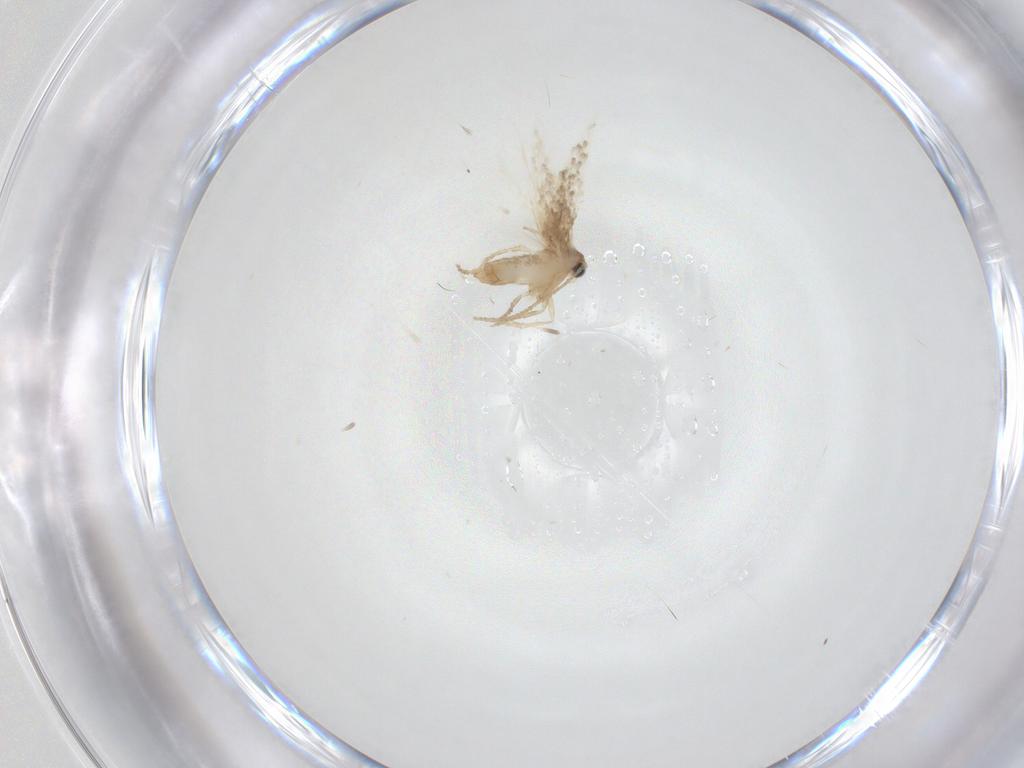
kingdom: Animalia
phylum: Arthropoda
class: Insecta
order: Lepidoptera
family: Nepticulidae
